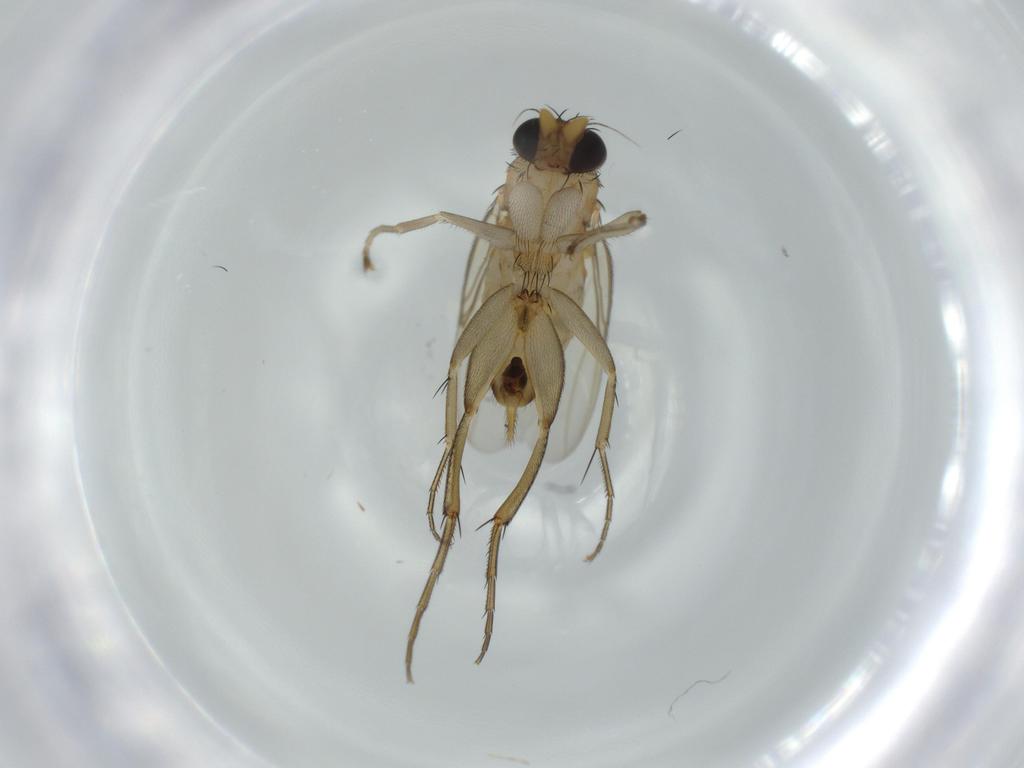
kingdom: Animalia
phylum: Arthropoda
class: Insecta
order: Diptera
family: Phoridae
